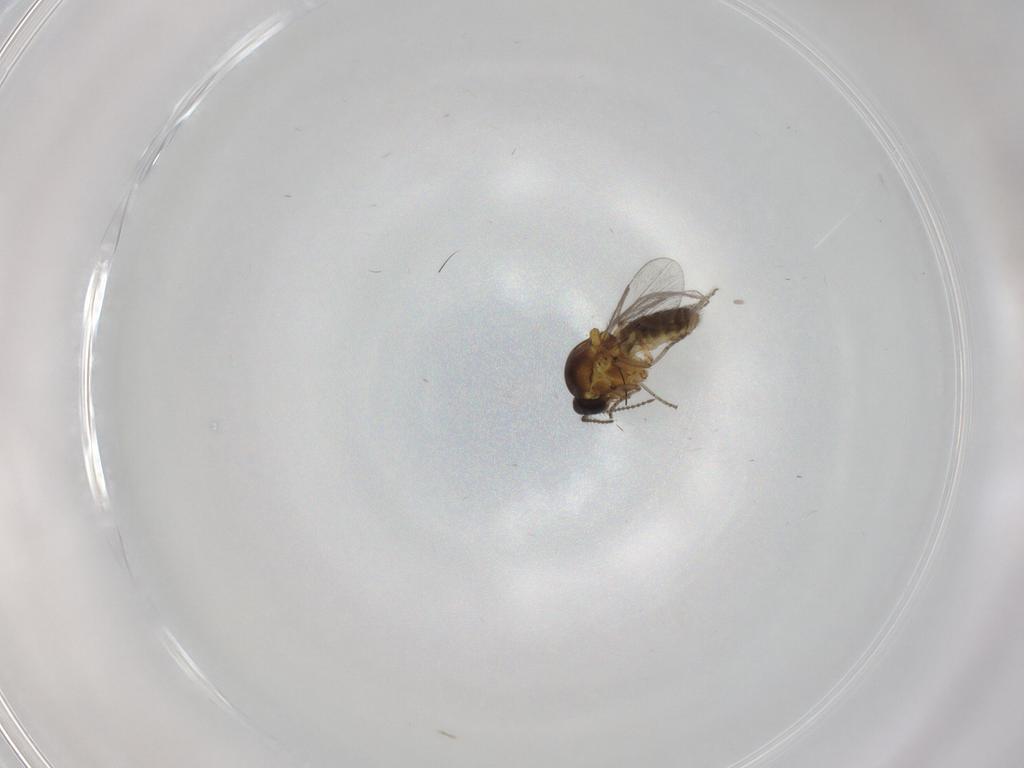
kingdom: Animalia
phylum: Arthropoda
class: Insecta
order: Diptera
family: Ceratopogonidae
